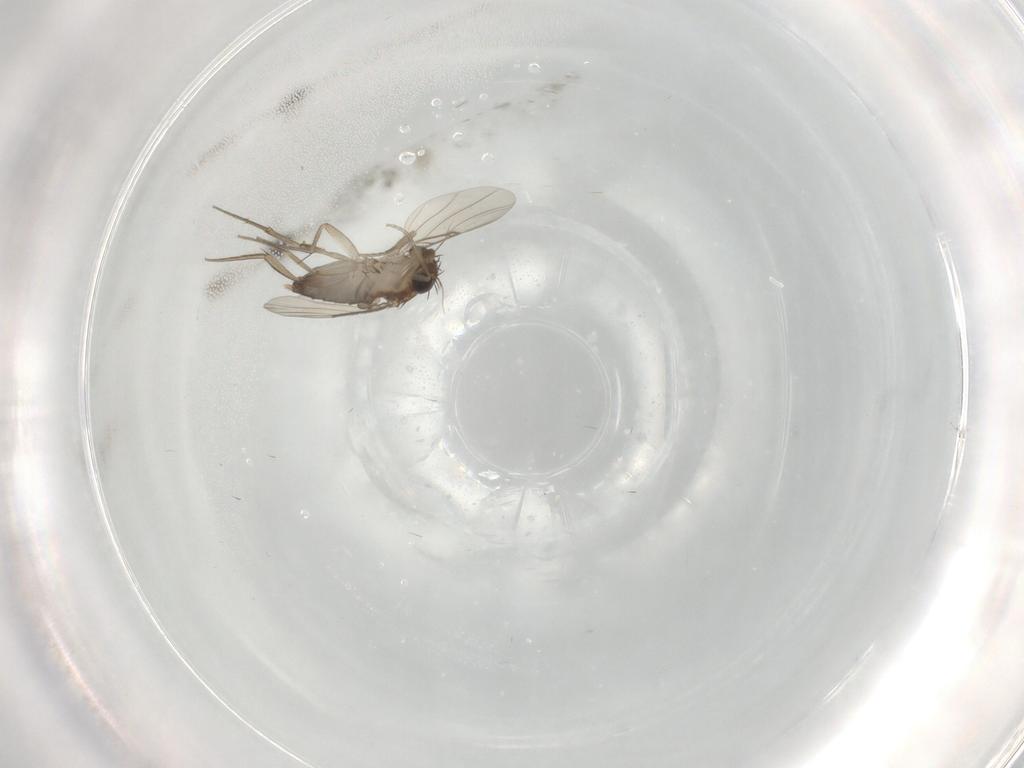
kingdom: Animalia
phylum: Arthropoda
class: Insecta
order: Diptera
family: Phoridae
